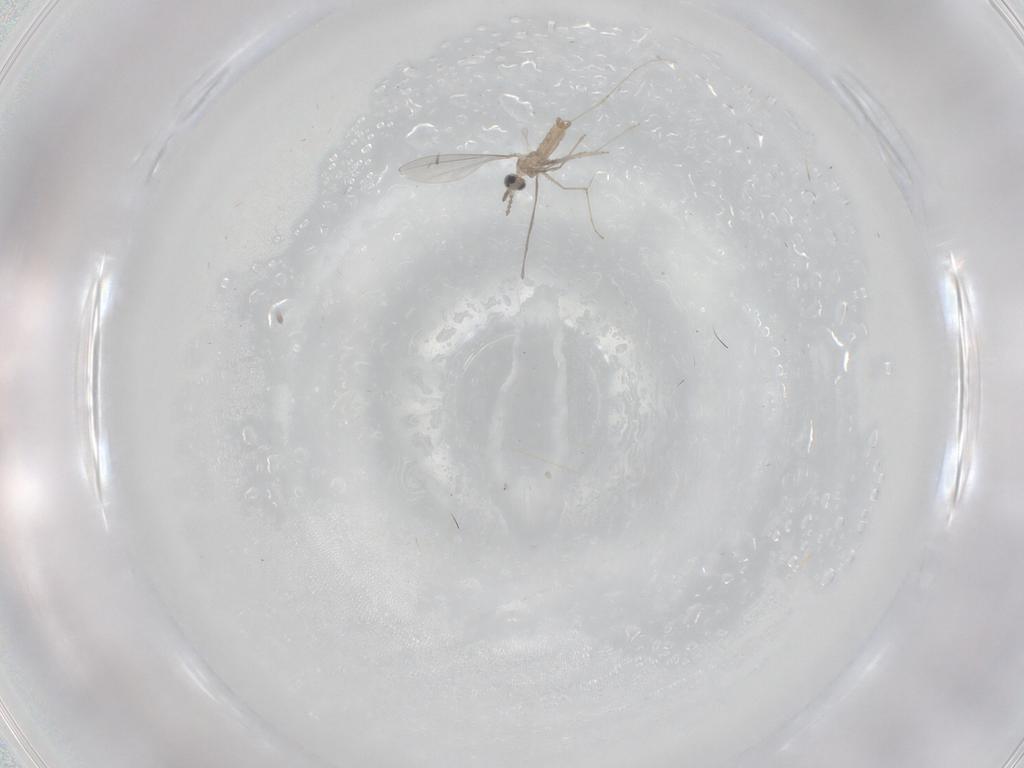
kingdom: Animalia
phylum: Arthropoda
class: Insecta
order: Diptera
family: Cecidomyiidae
